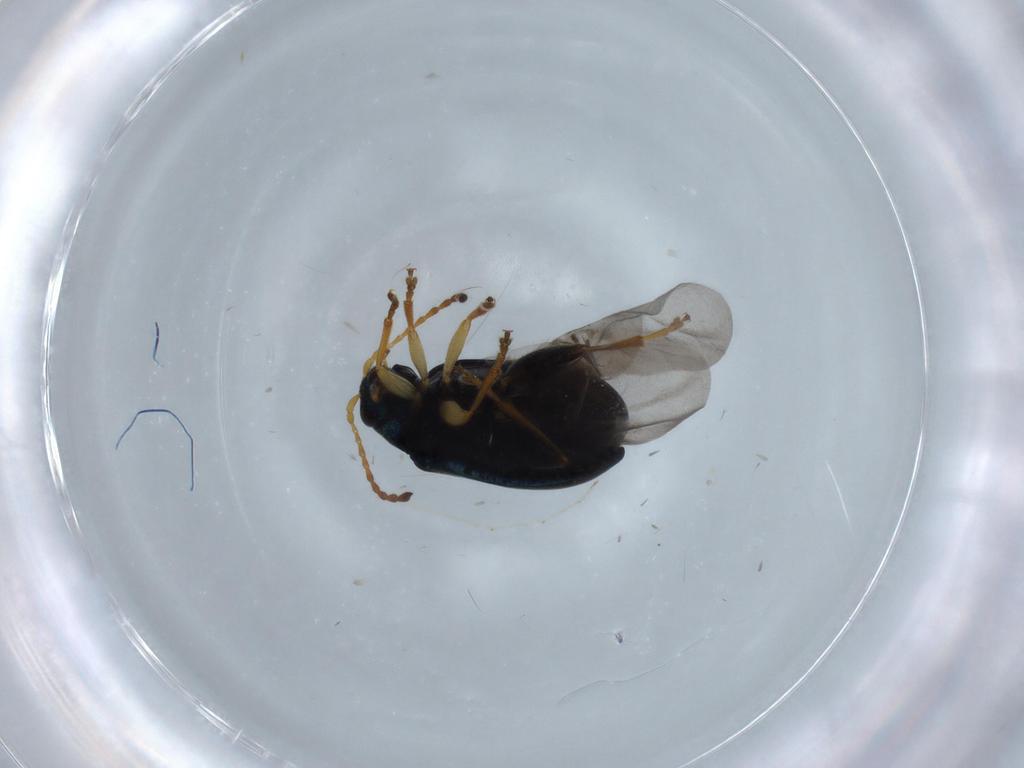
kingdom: Animalia
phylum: Arthropoda
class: Insecta
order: Coleoptera
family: Chrysomelidae
